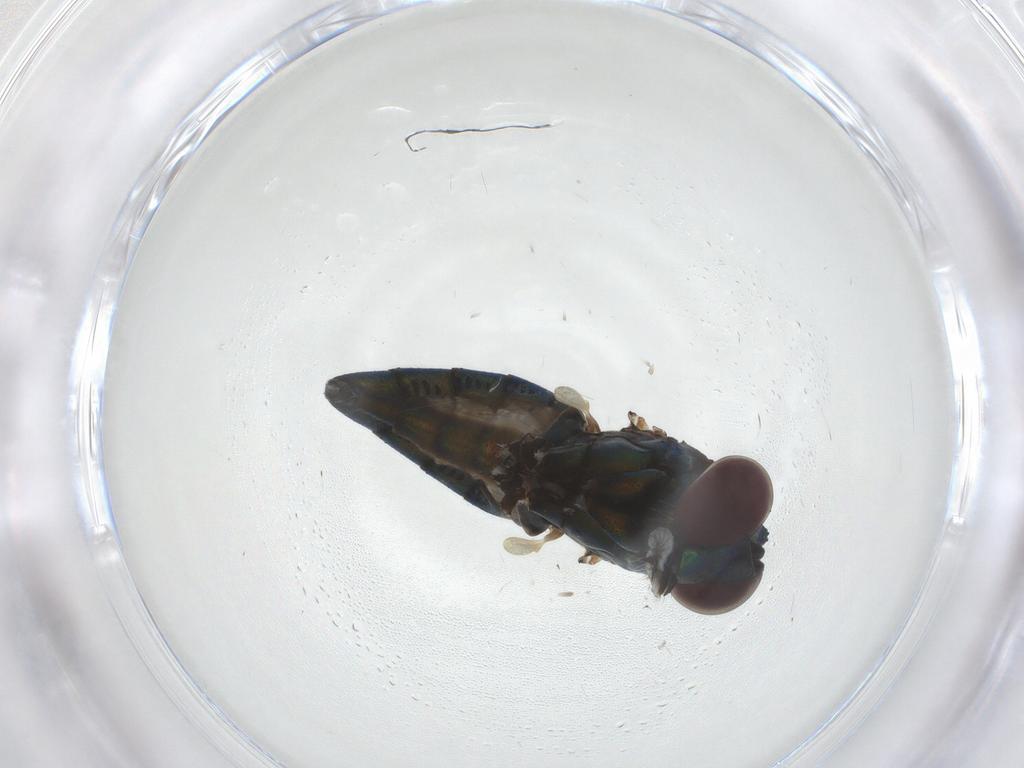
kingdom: Animalia
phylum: Arthropoda
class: Insecta
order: Diptera
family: Dolichopodidae
